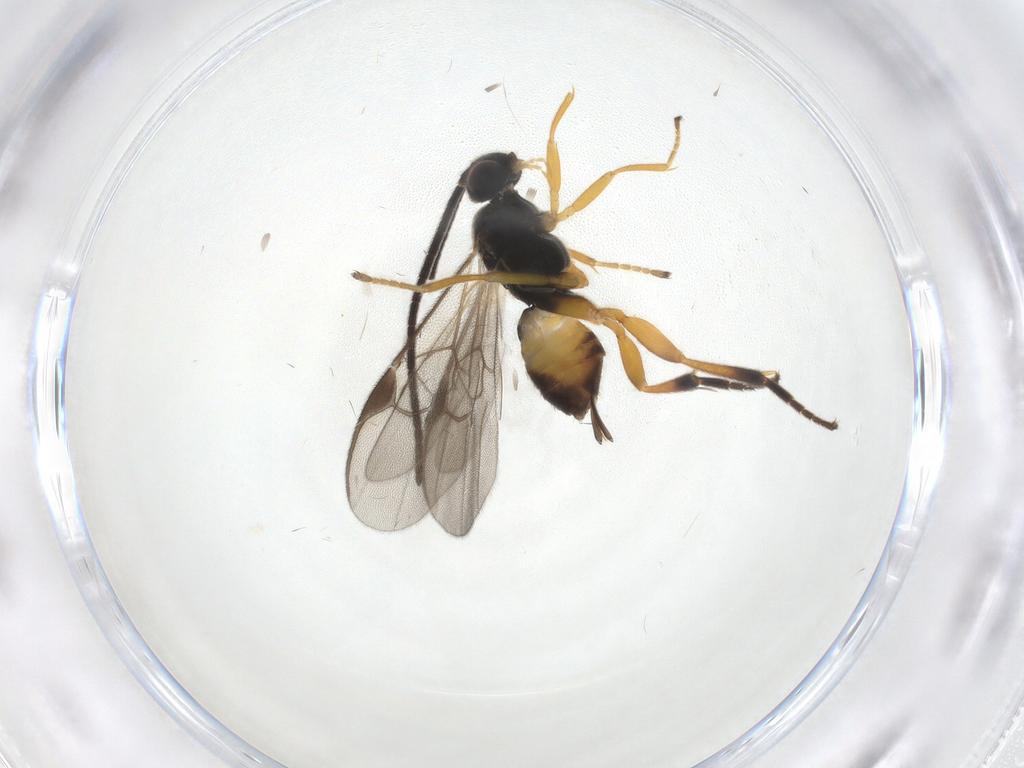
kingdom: Animalia
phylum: Arthropoda
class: Insecta
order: Hymenoptera
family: Braconidae
